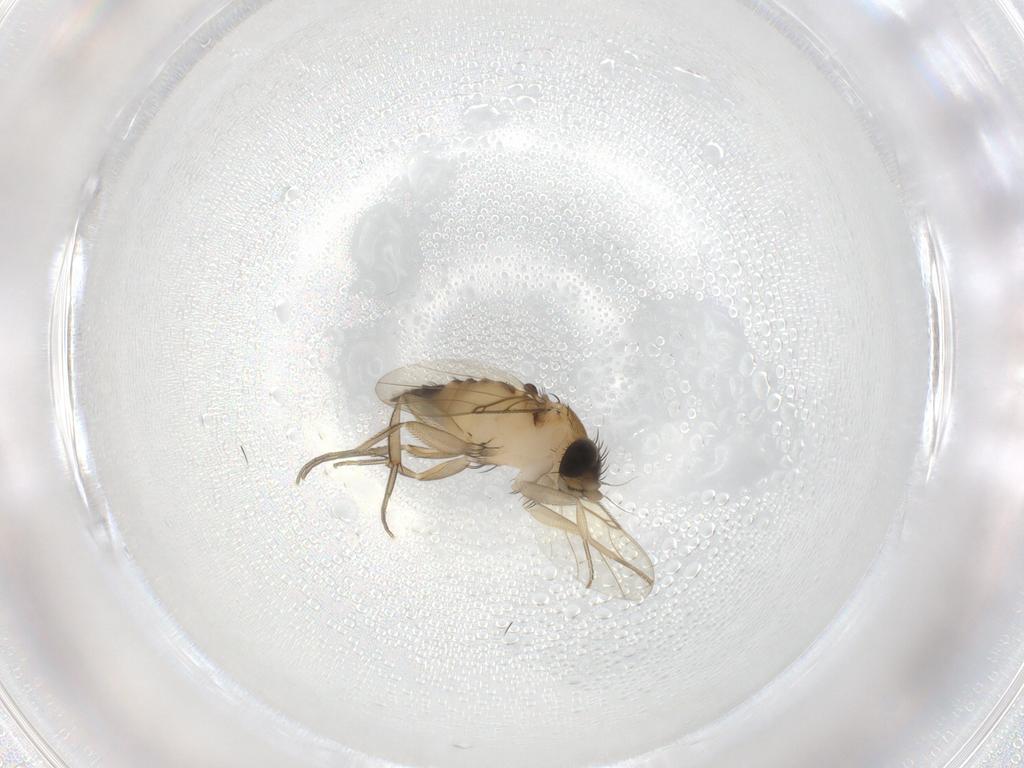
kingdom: Animalia
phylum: Arthropoda
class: Insecta
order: Diptera
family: Phoridae
